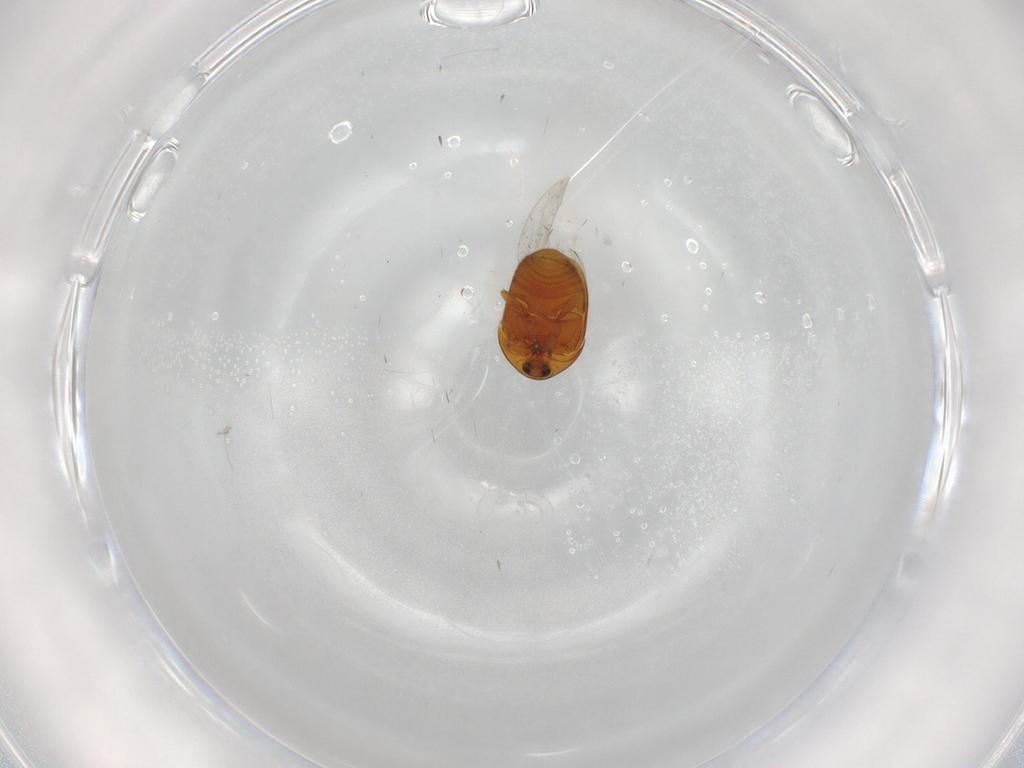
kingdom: Animalia
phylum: Arthropoda
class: Insecta
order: Coleoptera
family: Corylophidae
